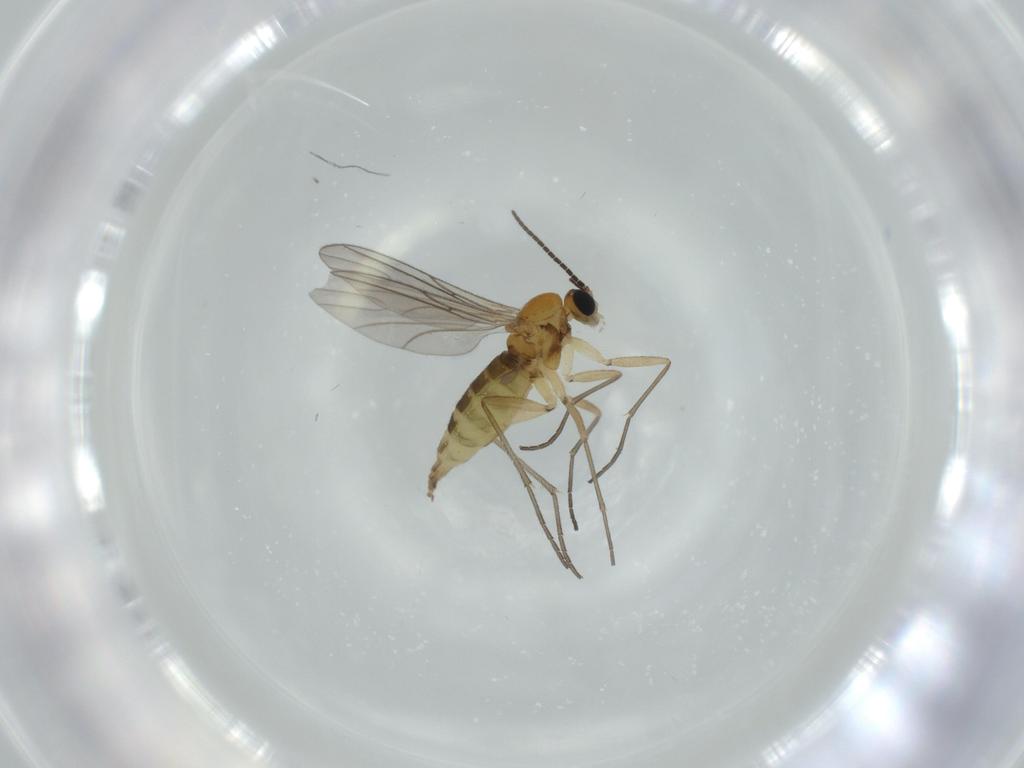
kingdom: Animalia
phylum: Arthropoda
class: Insecta
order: Diptera
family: Sciaridae
